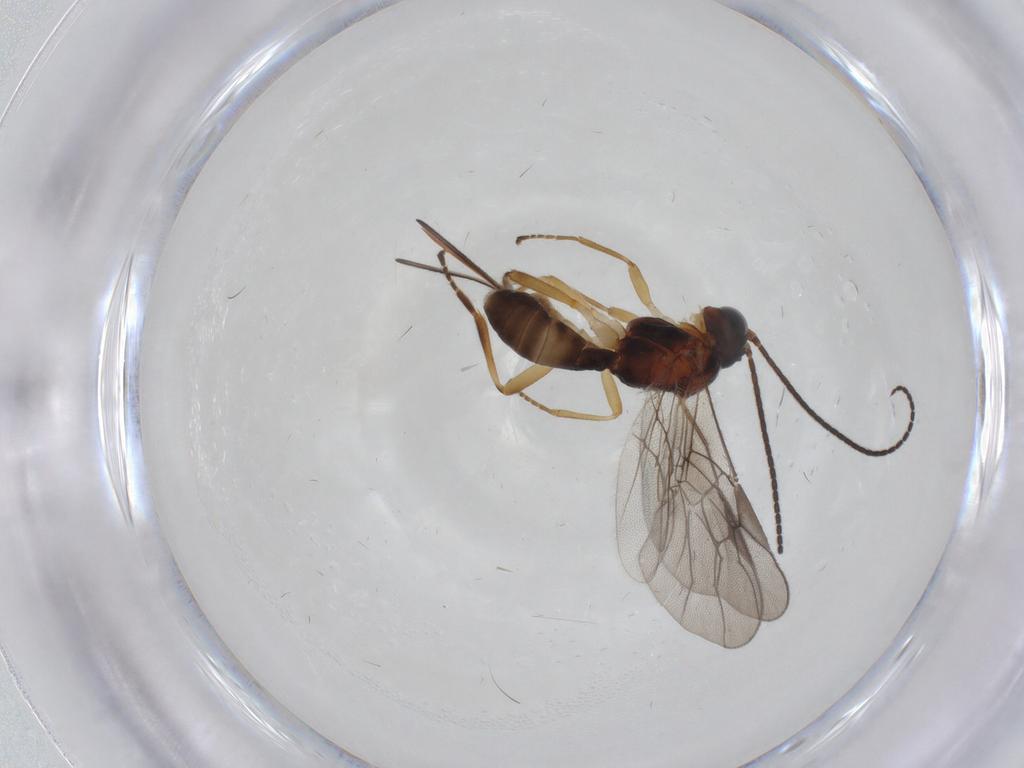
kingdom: Animalia
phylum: Arthropoda
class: Insecta
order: Hymenoptera
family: Braconidae
